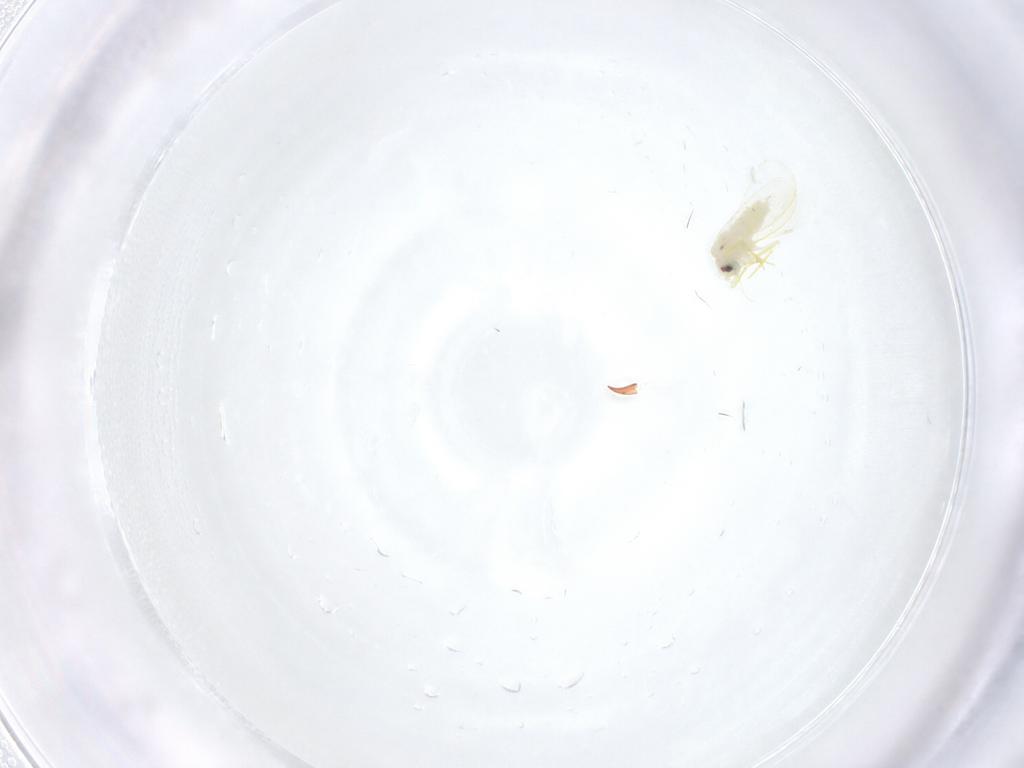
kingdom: Animalia
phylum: Arthropoda
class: Insecta
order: Hemiptera
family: Aleyrodidae
